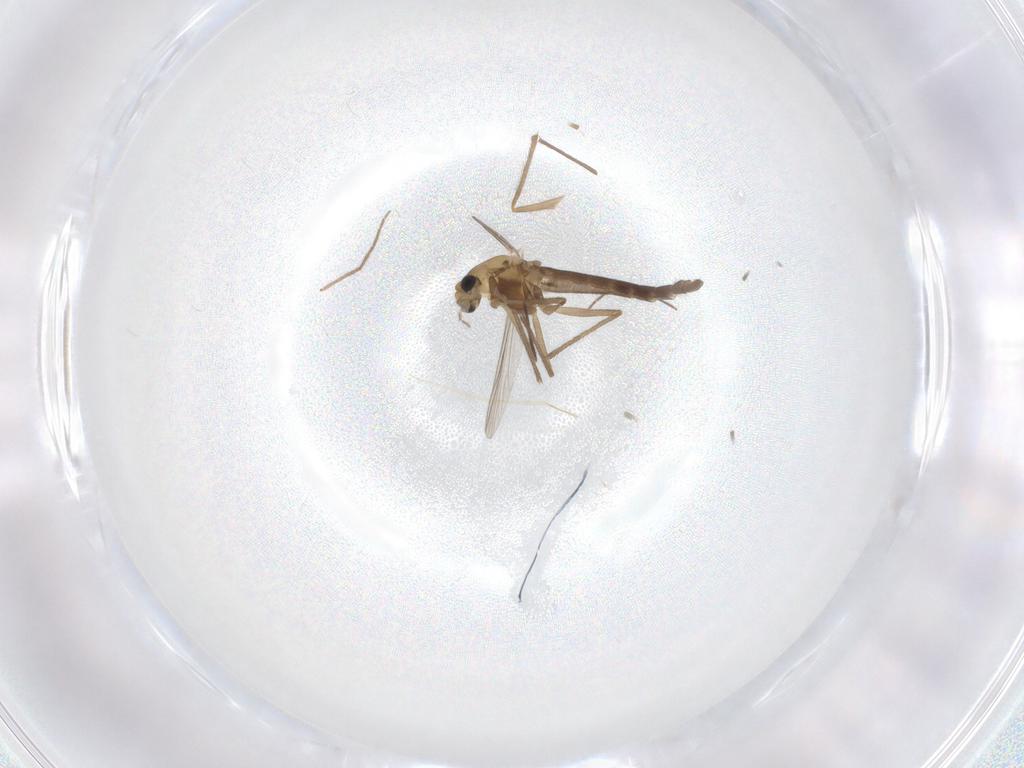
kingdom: Animalia
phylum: Arthropoda
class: Insecta
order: Diptera
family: Chironomidae
